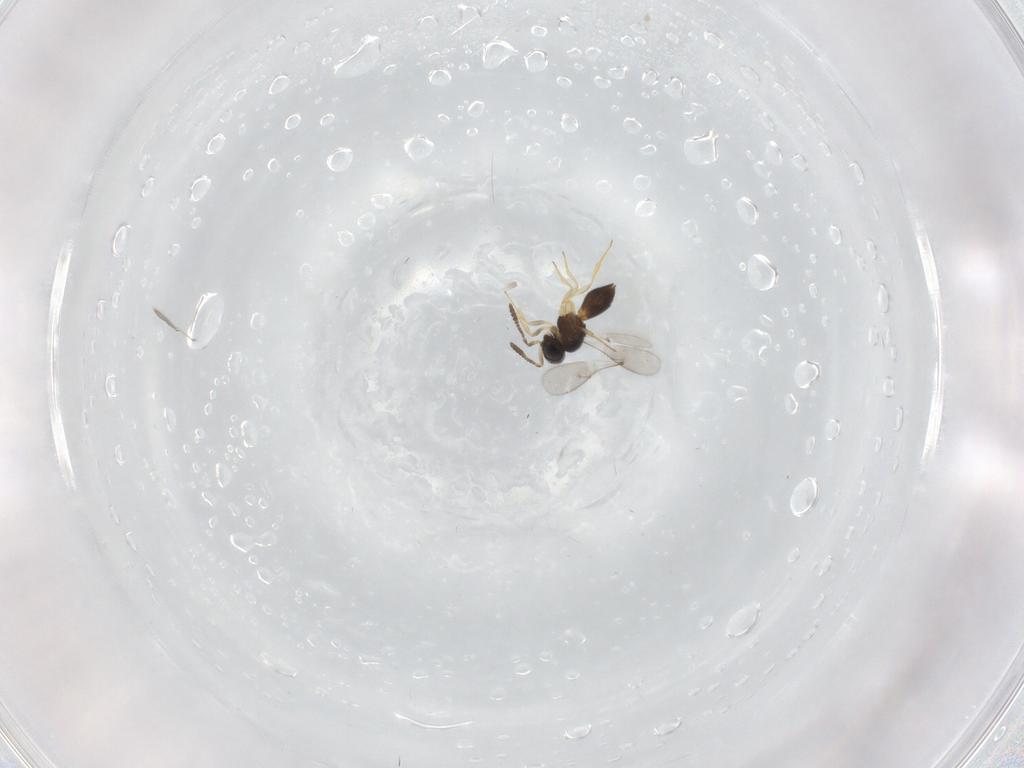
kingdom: Animalia
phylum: Arthropoda
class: Insecta
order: Hymenoptera
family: Scelionidae
